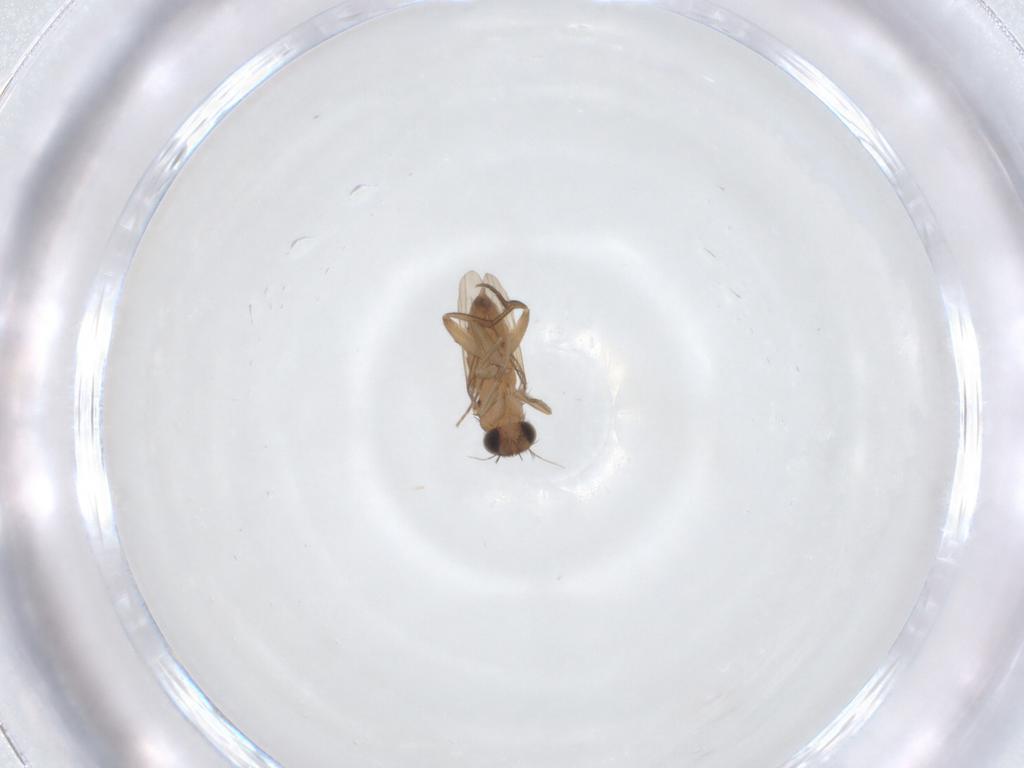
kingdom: Animalia
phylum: Arthropoda
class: Insecta
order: Diptera
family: Phoridae
